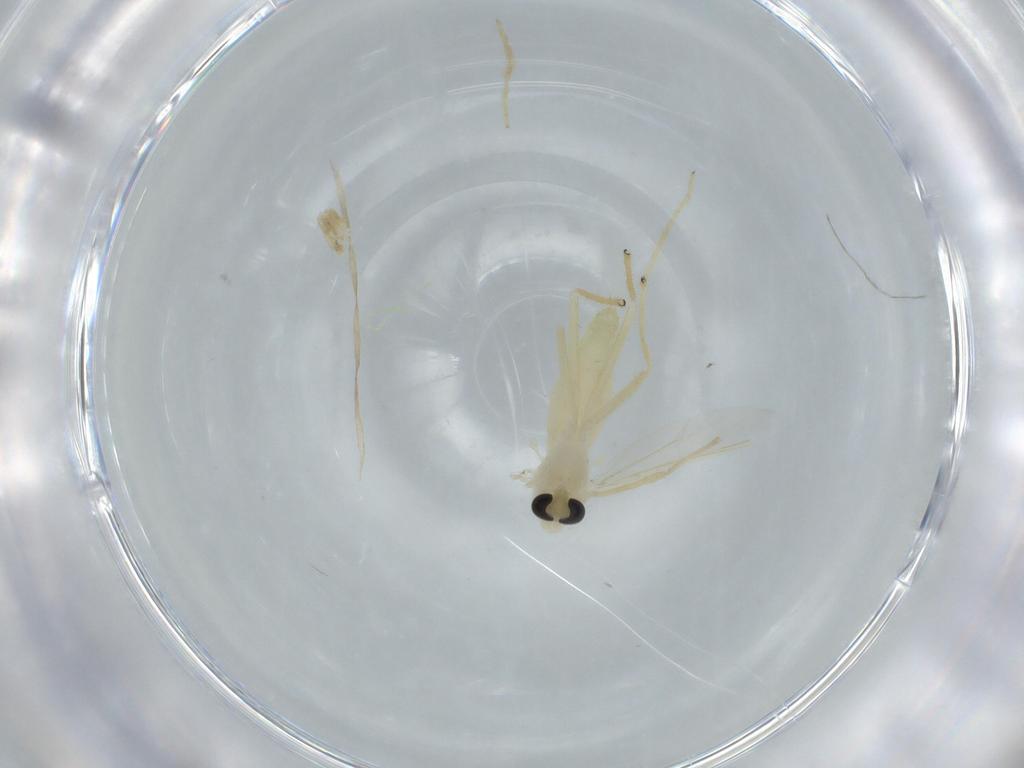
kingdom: Animalia
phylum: Arthropoda
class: Insecta
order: Diptera
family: Chironomidae
